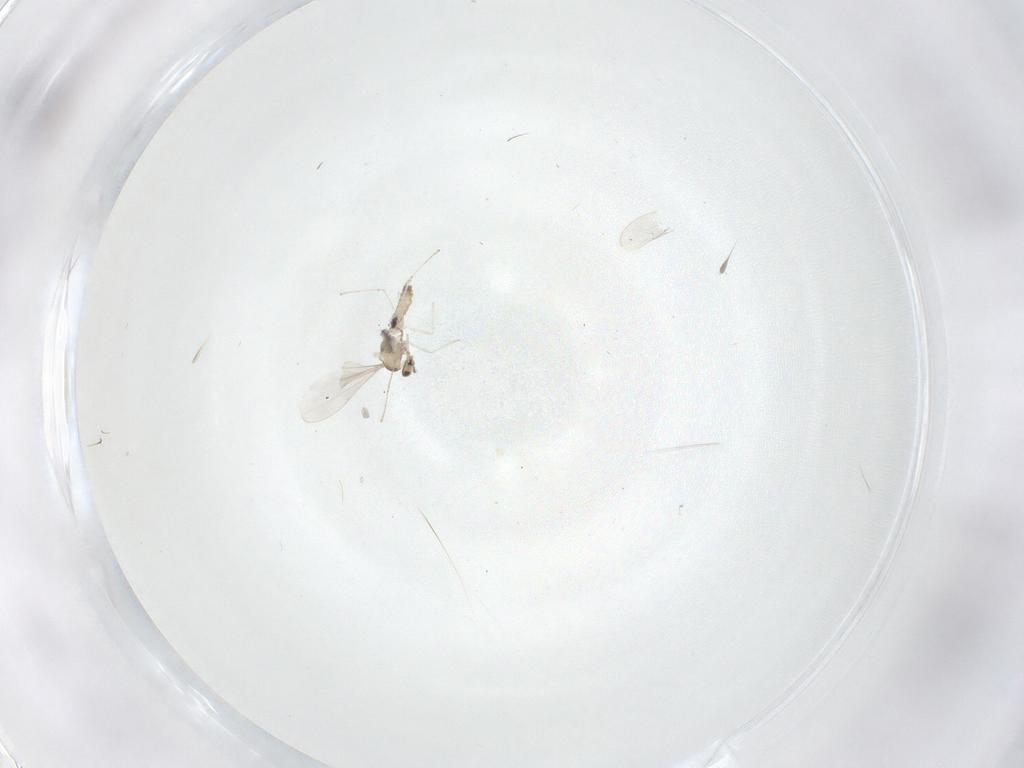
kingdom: Animalia
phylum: Arthropoda
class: Insecta
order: Diptera
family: Cecidomyiidae
